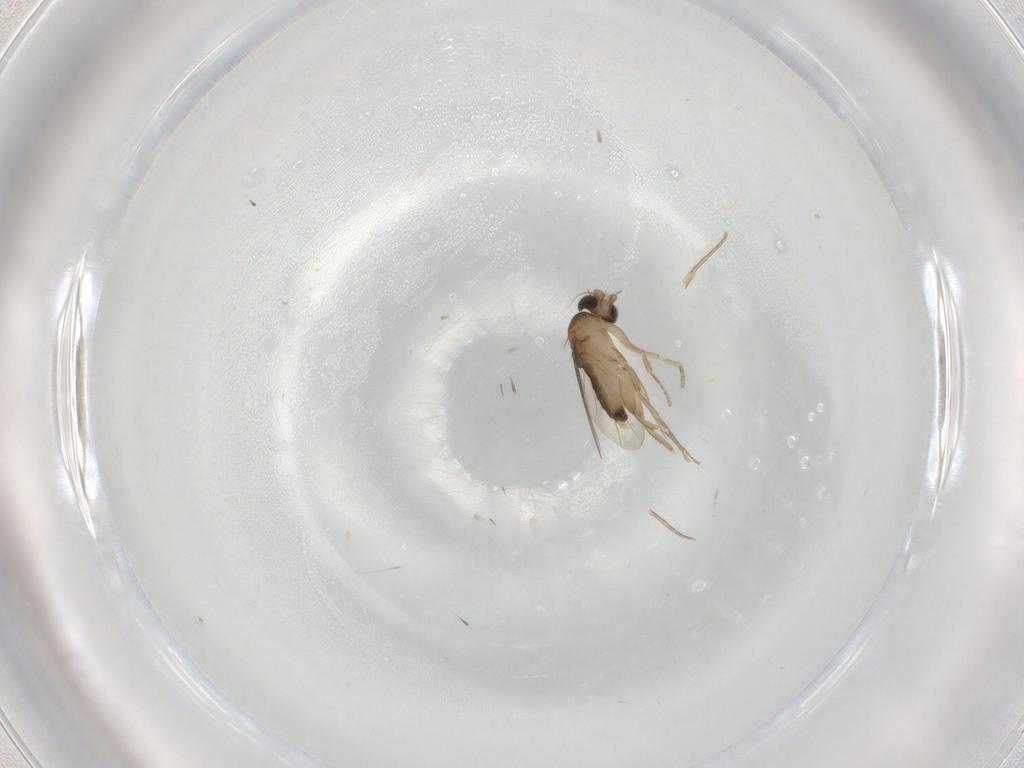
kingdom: Animalia
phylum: Arthropoda
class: Insecta
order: Diptera
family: Phoridae
